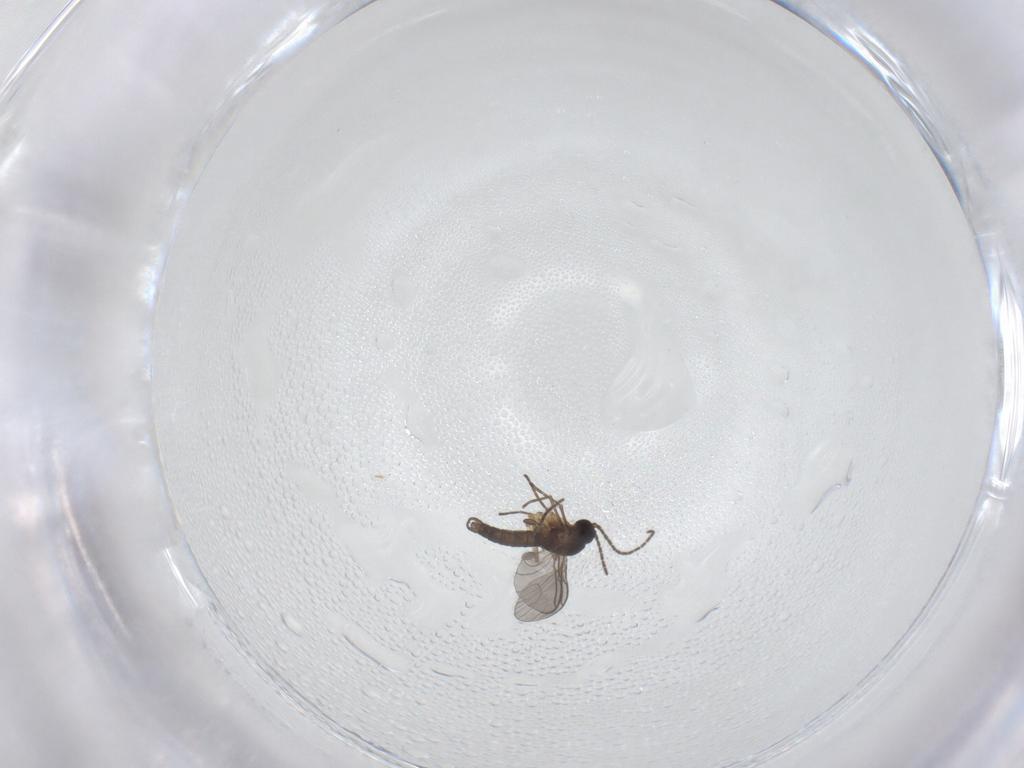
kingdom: Animalia
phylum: Arthropoda
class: Insecta
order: Diptera
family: Sciaridae
